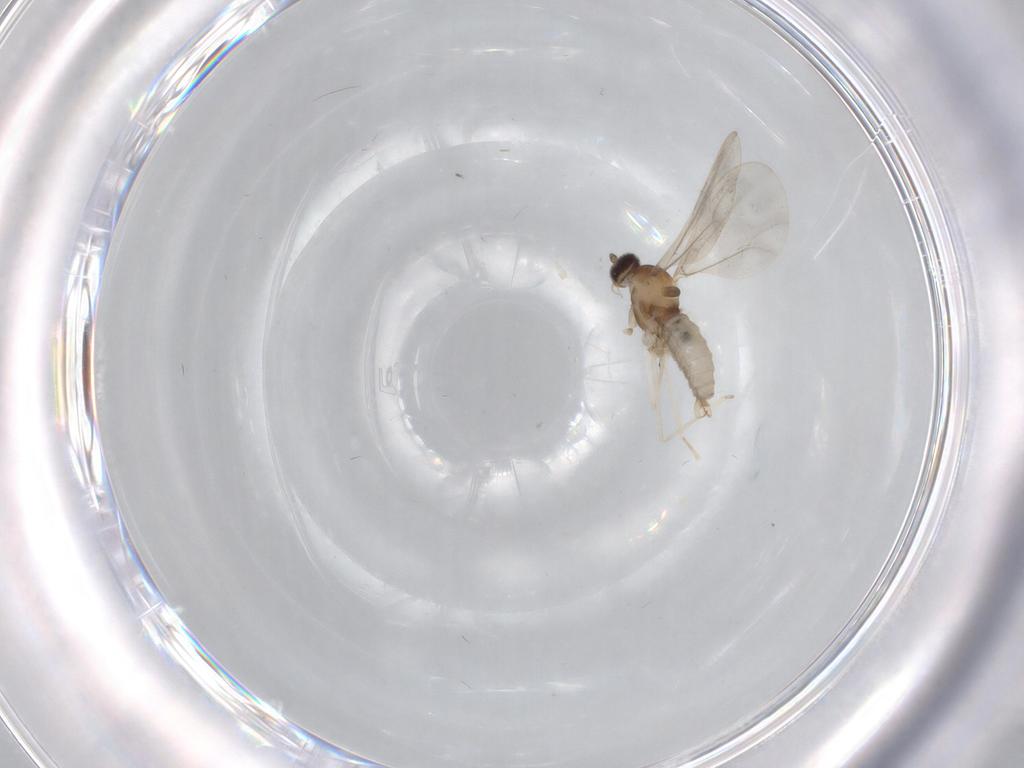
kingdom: Animalia
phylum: Arthropoda
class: Insecta
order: Diptera
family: Cecidomyiidae
